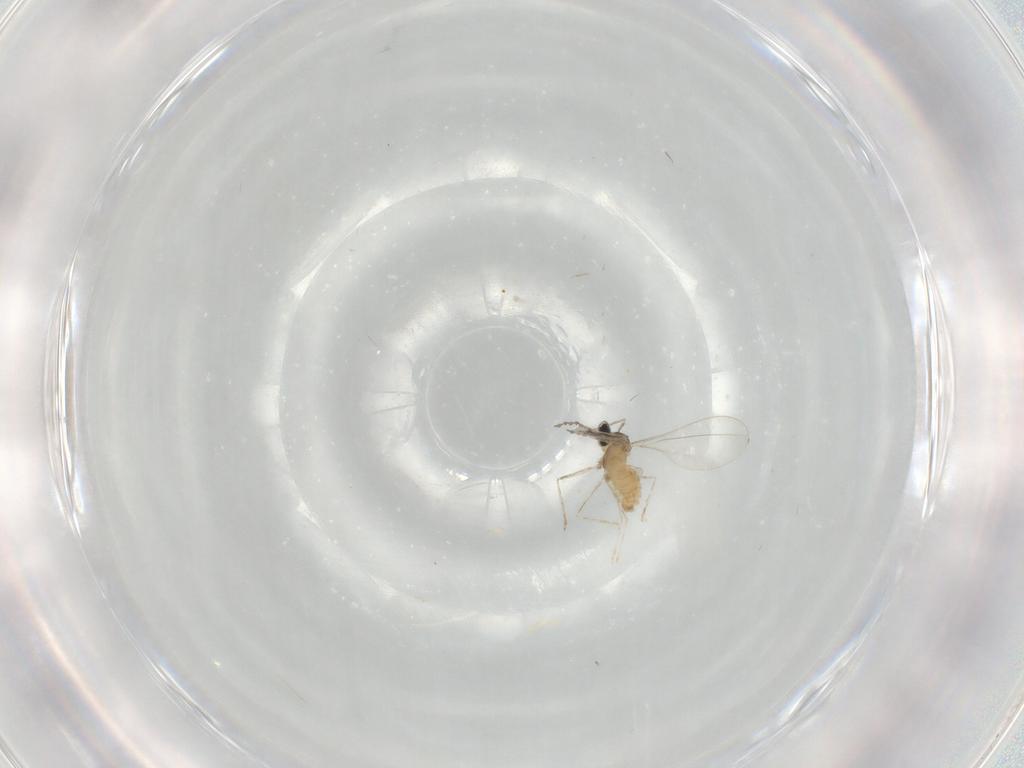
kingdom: Animalia
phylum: Arthropoda
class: Insecta
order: Diptera
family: Cecidomyiidae
